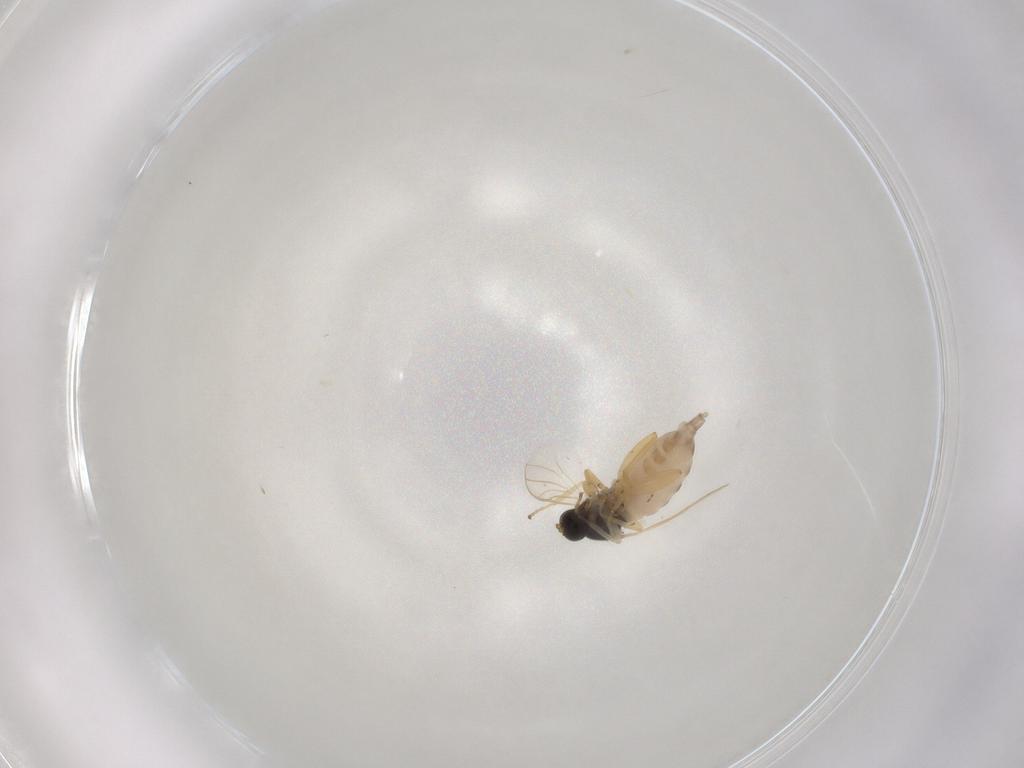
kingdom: Animalia
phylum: Arthropoda
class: Insecta
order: Diptera
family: Hybotidae
